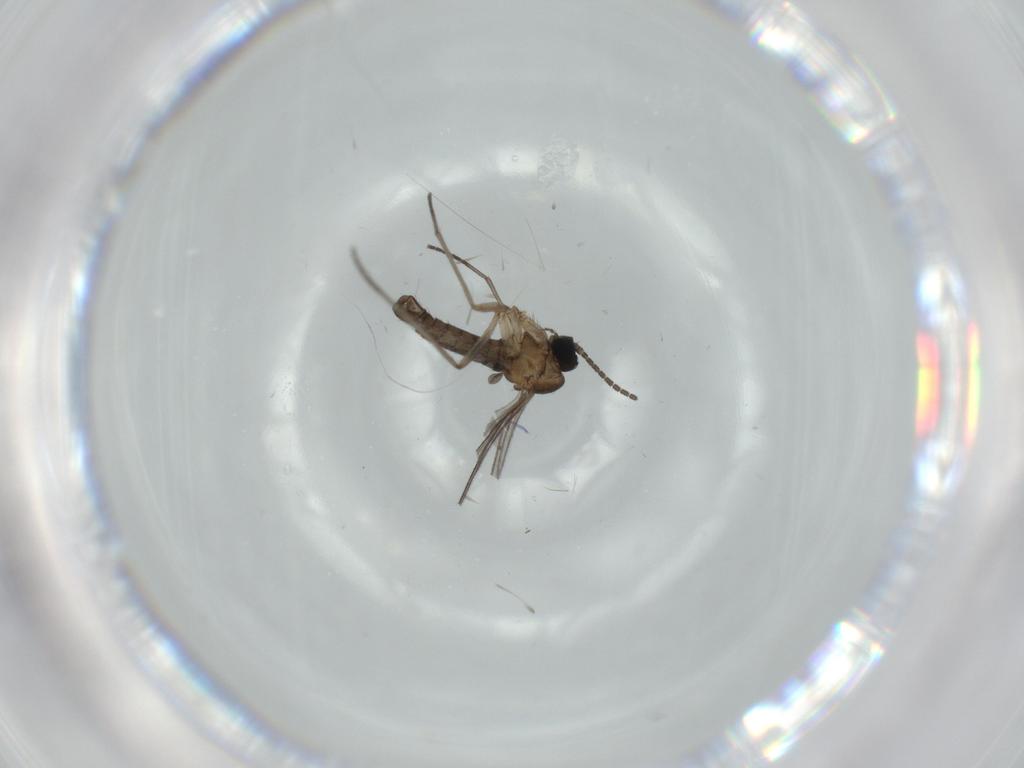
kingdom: Animalia
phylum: Arthropoda
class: Insecta
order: Diptera
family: Sciaridae
